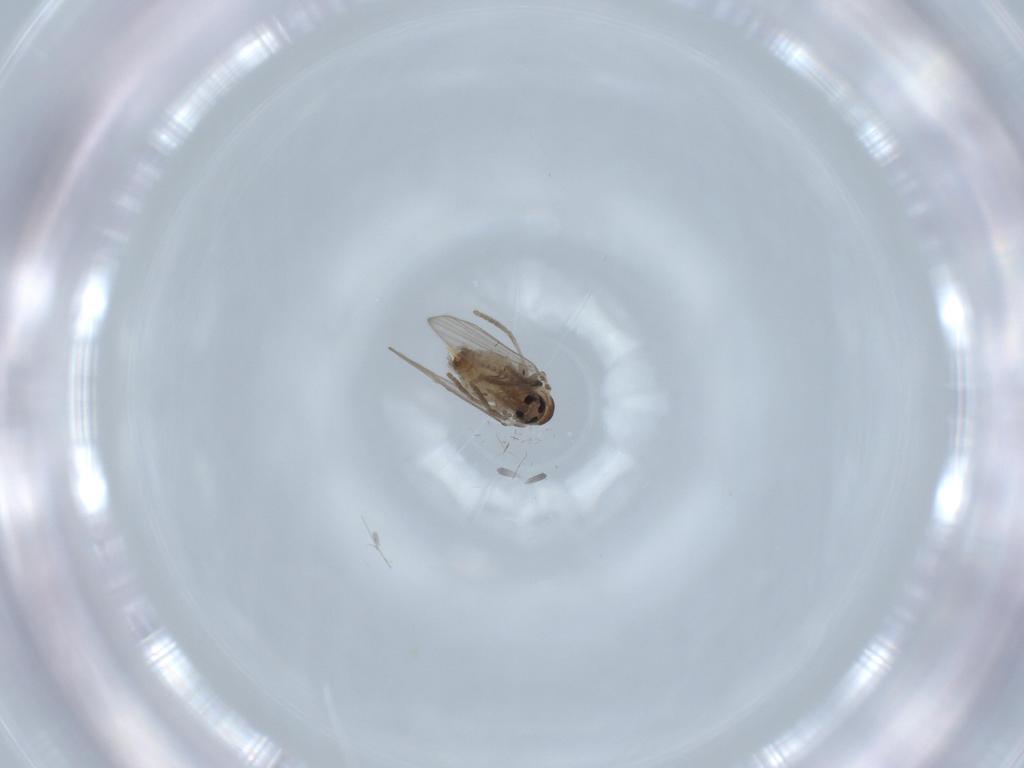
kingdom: Animalia
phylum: Arthropoda
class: Insecta
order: Diptera
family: Psychodidae
